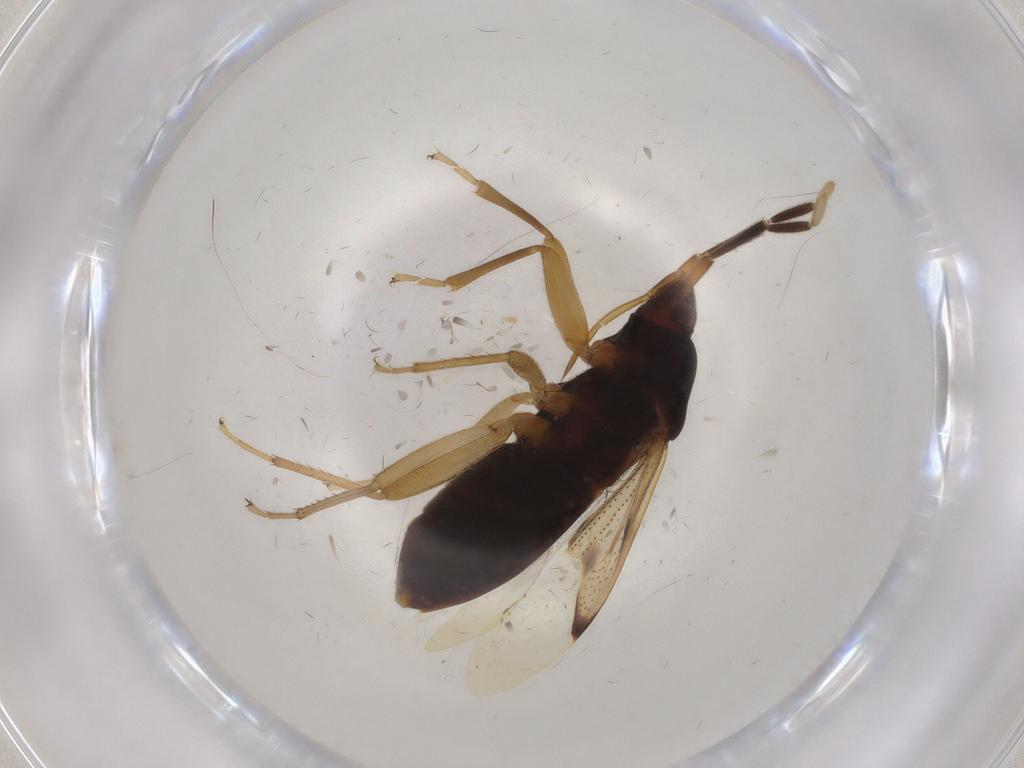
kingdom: Animalia
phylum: Arthropoda
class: Insecta
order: Hemiptera
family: Rhyparochromidae
